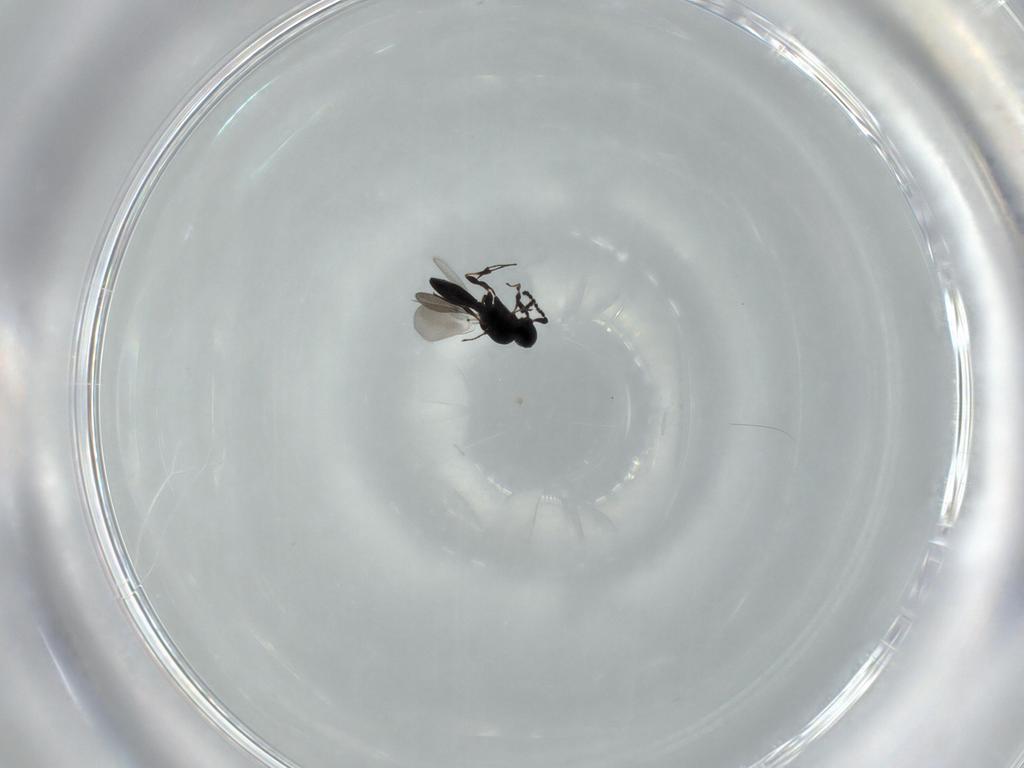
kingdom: Animalia
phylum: Arthropoda
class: Insecta
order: Hymenoptera
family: Platygastridae
